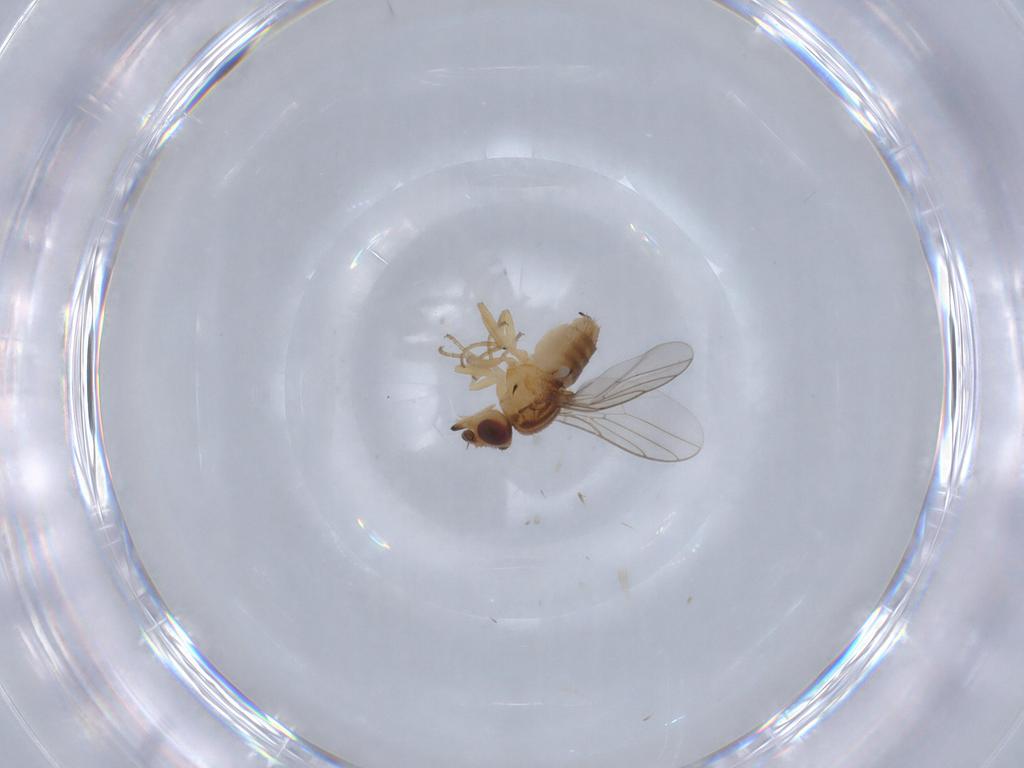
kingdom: Animalia
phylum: Arthropoda
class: Insecta
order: Diptera
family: Chloropidae
